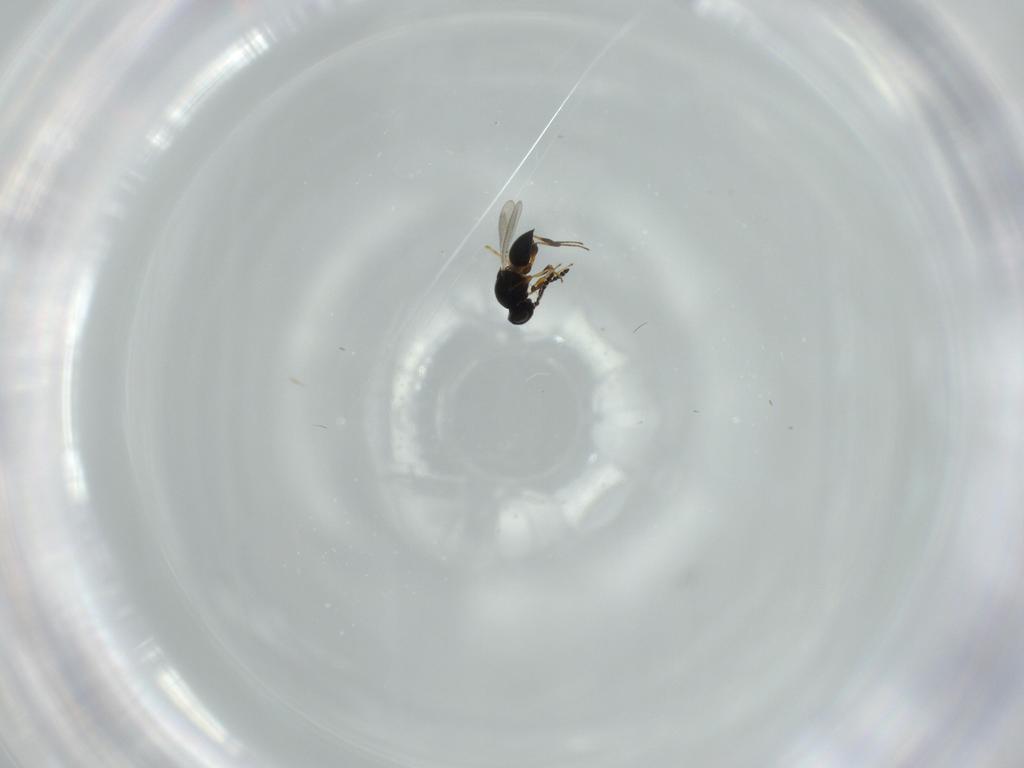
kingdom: Animalia
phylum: Arthropoda
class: Insecta
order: Hymenoptera
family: Platygastridae
